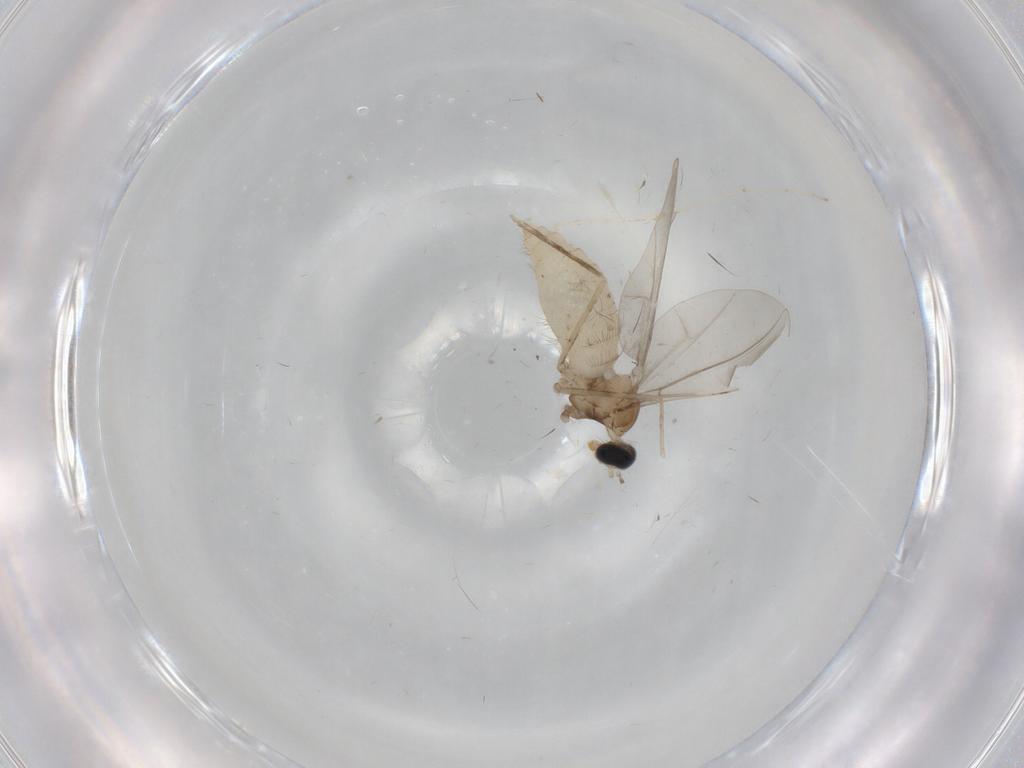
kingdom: Animalia
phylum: Arthropoda
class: Insecta
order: Diptera
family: Cecidomyiidae
